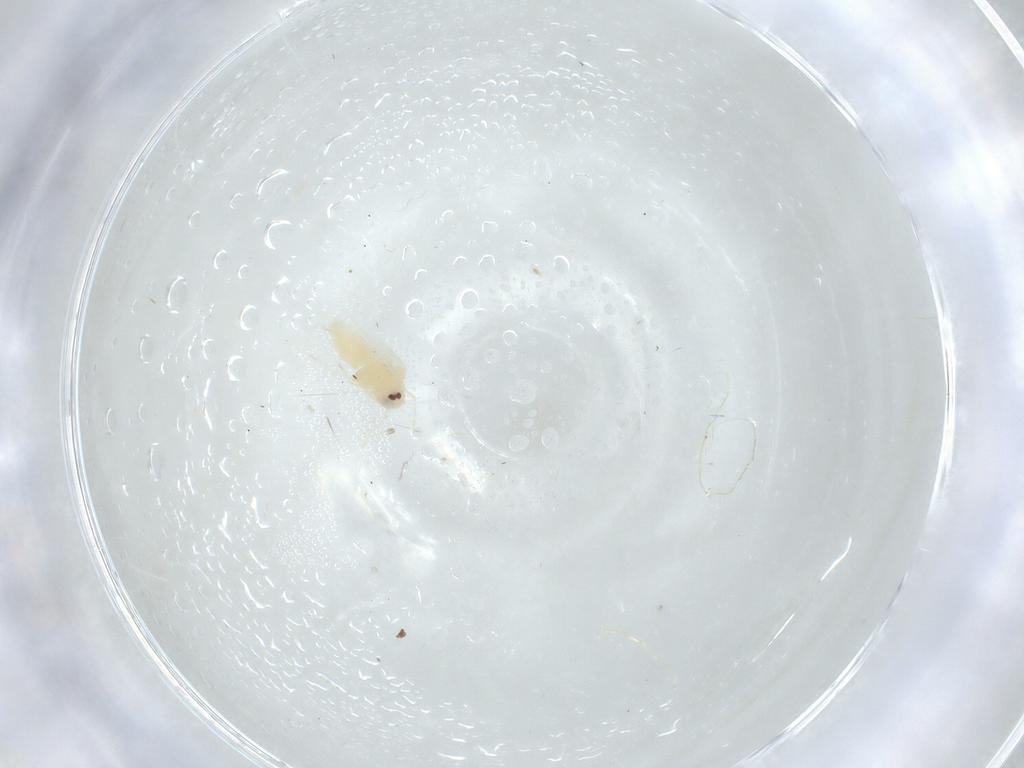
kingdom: Animalia
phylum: Arthropoda
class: Insecta
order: Hemiptera
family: Aleyrodidae
